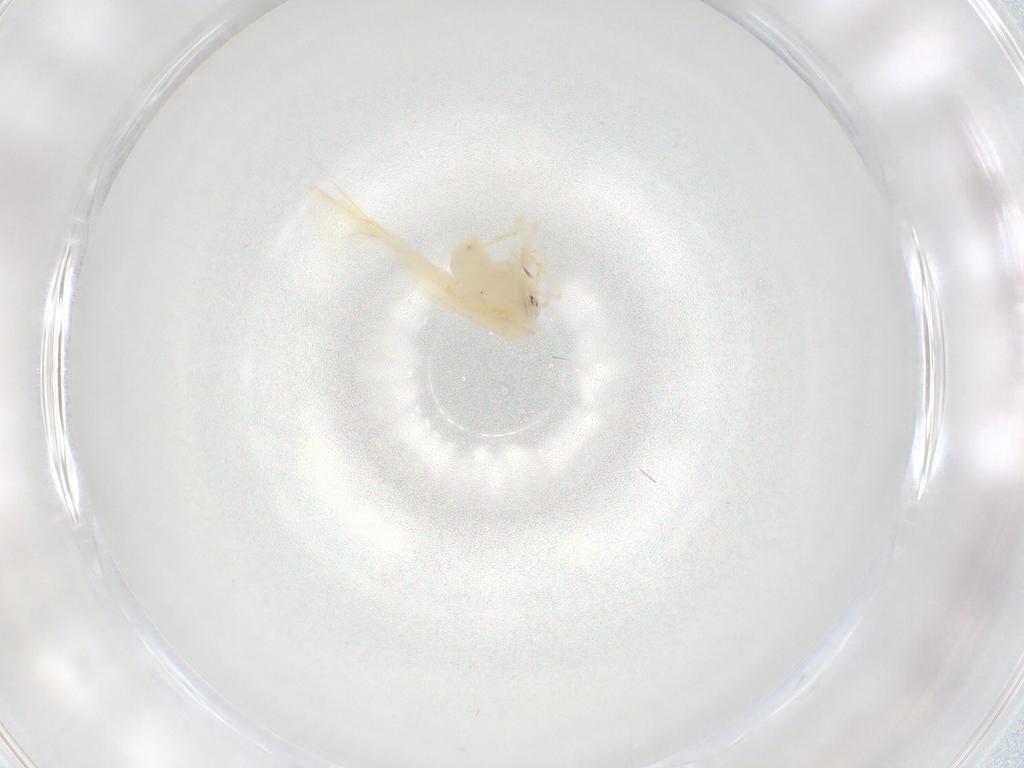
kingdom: Animalia
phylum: Arthropoda
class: Insecta
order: Hemiptera
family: Aleyrodidae
